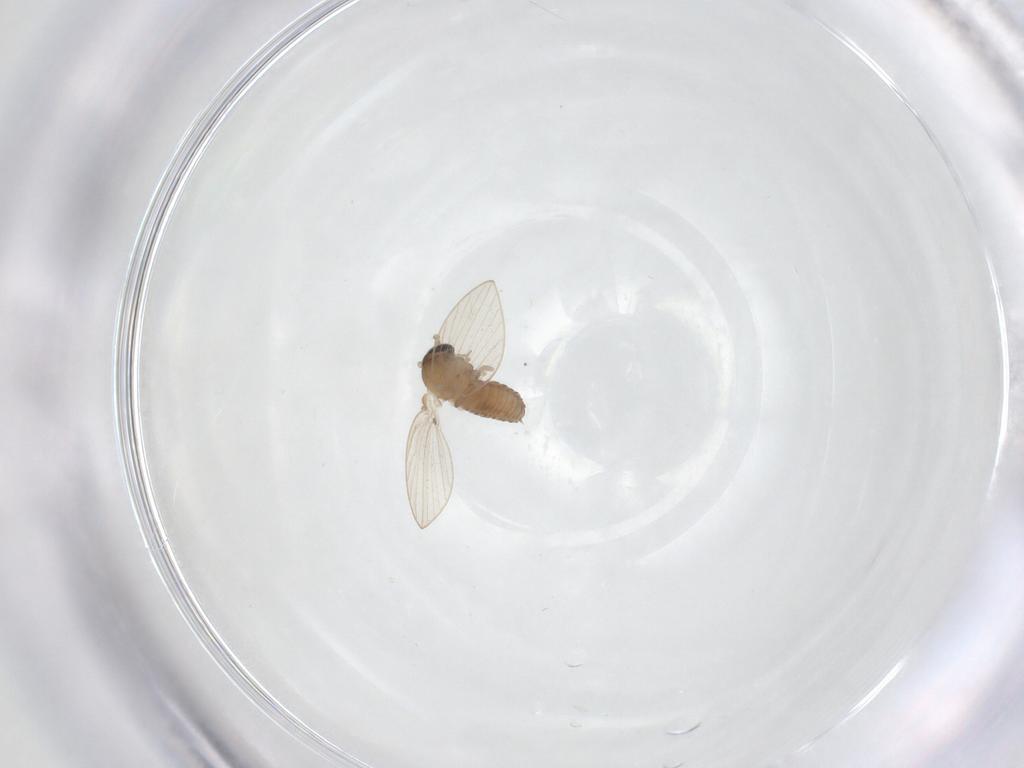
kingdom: Animalia
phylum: Arthropoda
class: Insecta
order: Diptera
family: Psychodidae
